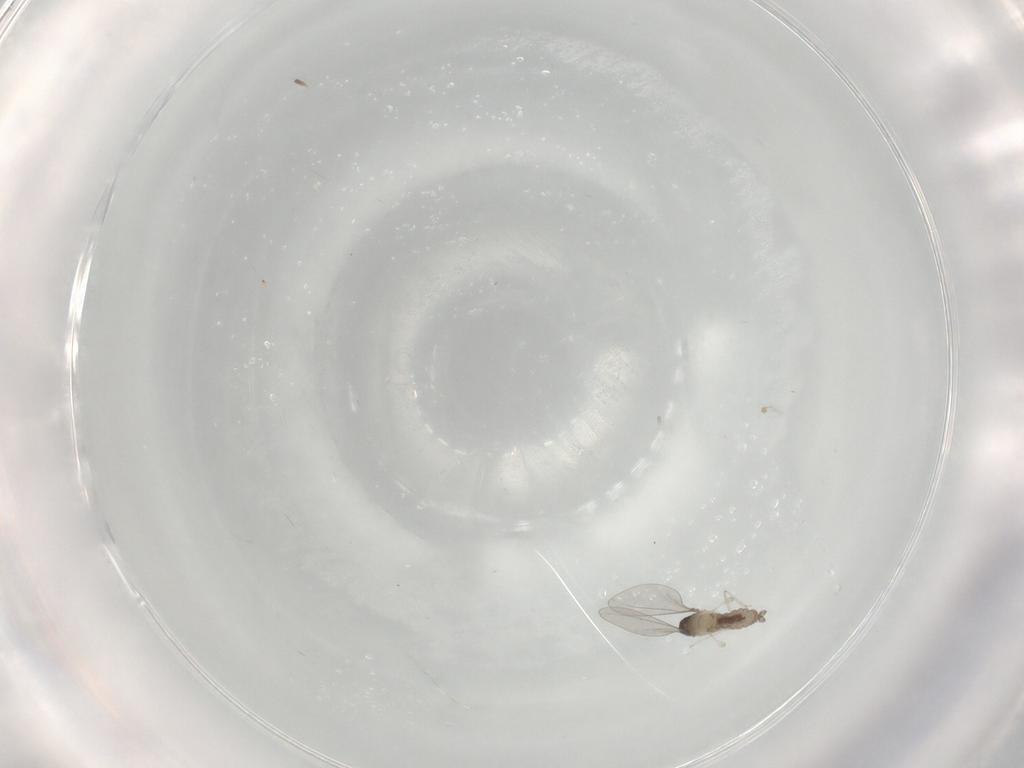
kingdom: Animalia
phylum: Arthropoda
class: Insecta
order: Diptera
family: Cecidomyiidae
